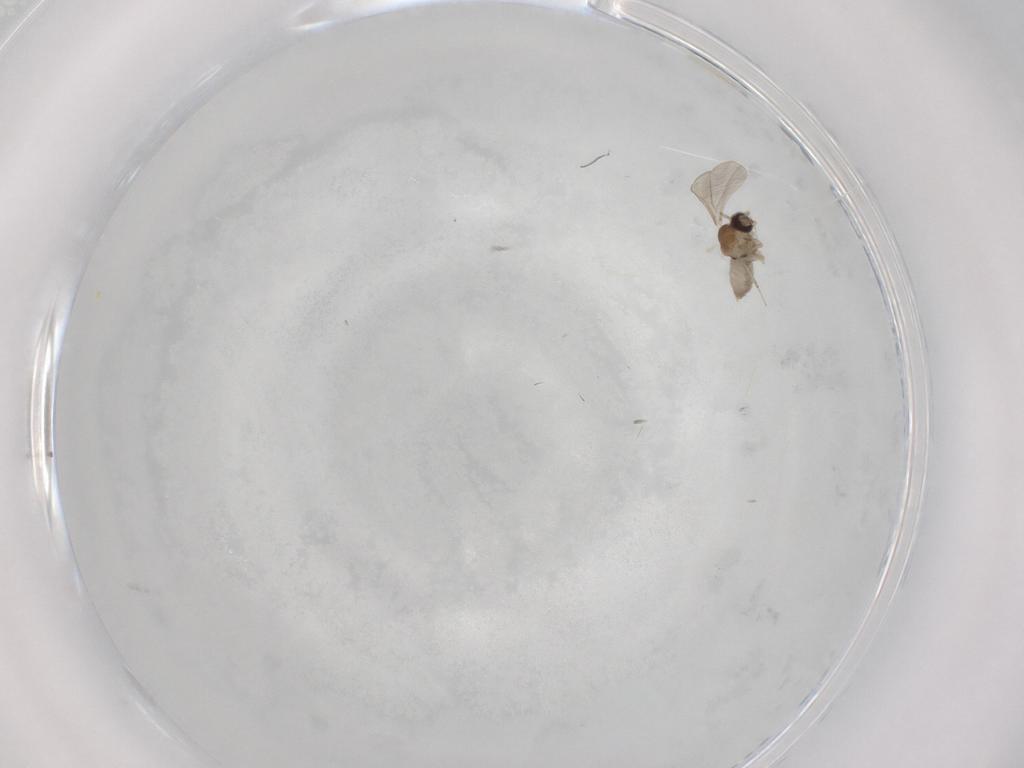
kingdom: Animalia
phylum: Arthropoda
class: Insecta
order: Diptera
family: Cecidomyiidae
